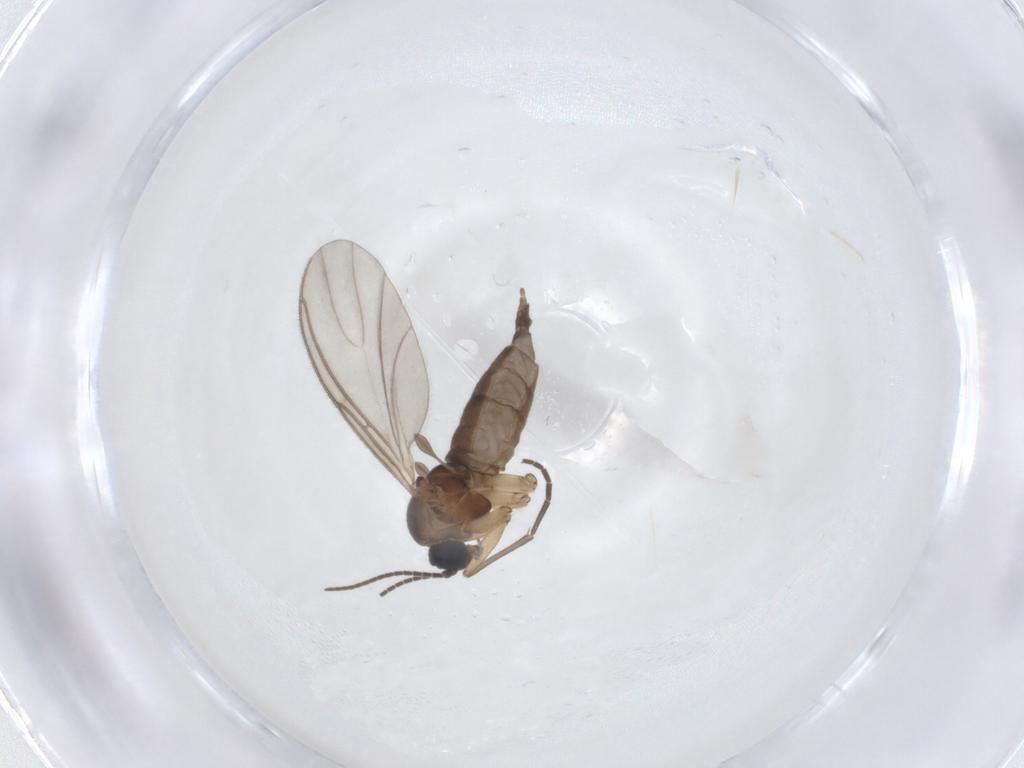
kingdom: Animalia
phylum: Arthropoda
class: Insecta
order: Diptera
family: Sciaridae
